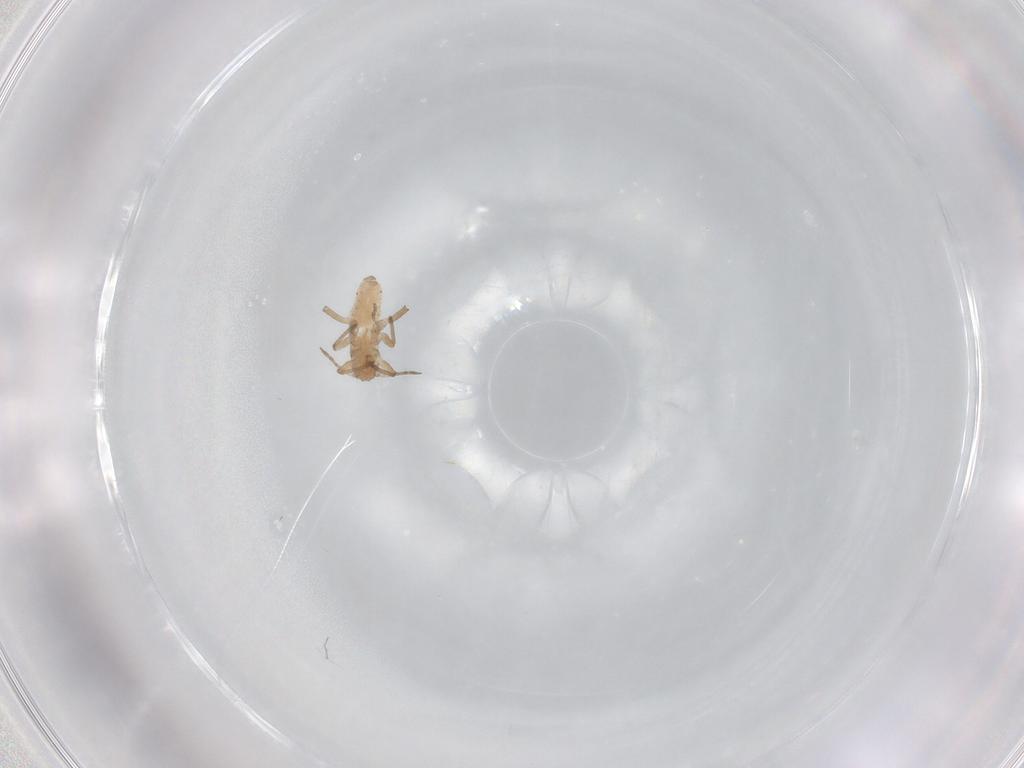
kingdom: Animalia
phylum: Arthropoda
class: Insecta
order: Hemiptera
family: Aphididae
